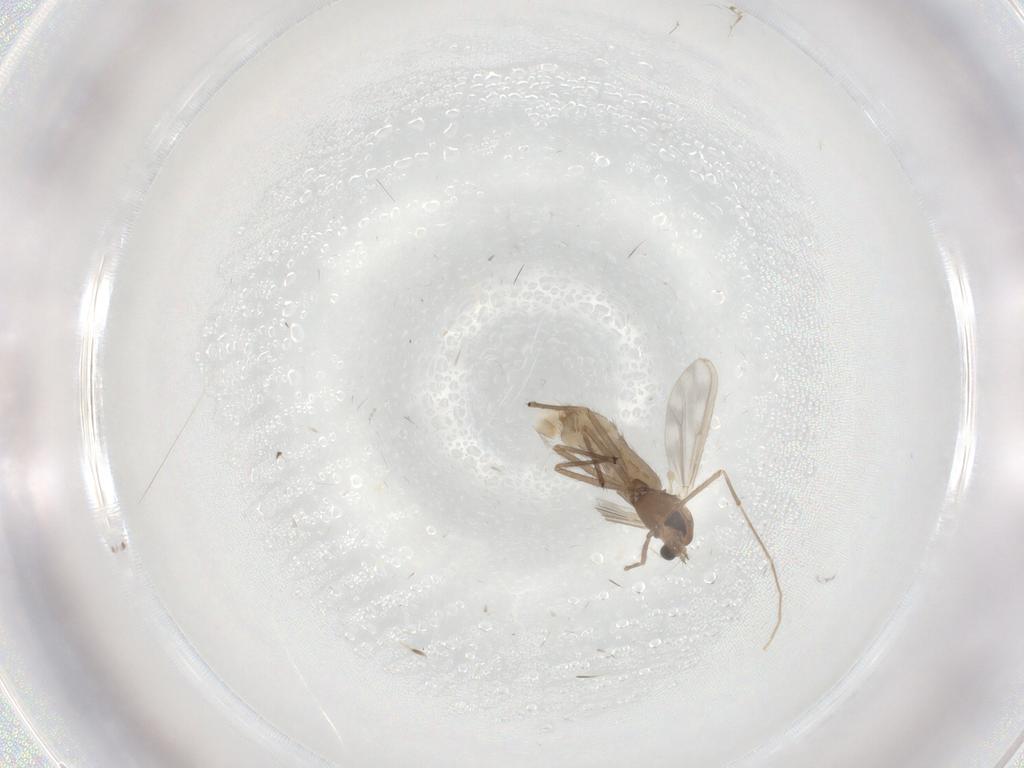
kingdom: Animalia
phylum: Arthropoda
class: Insecta
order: Diptera
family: Chironomidae
